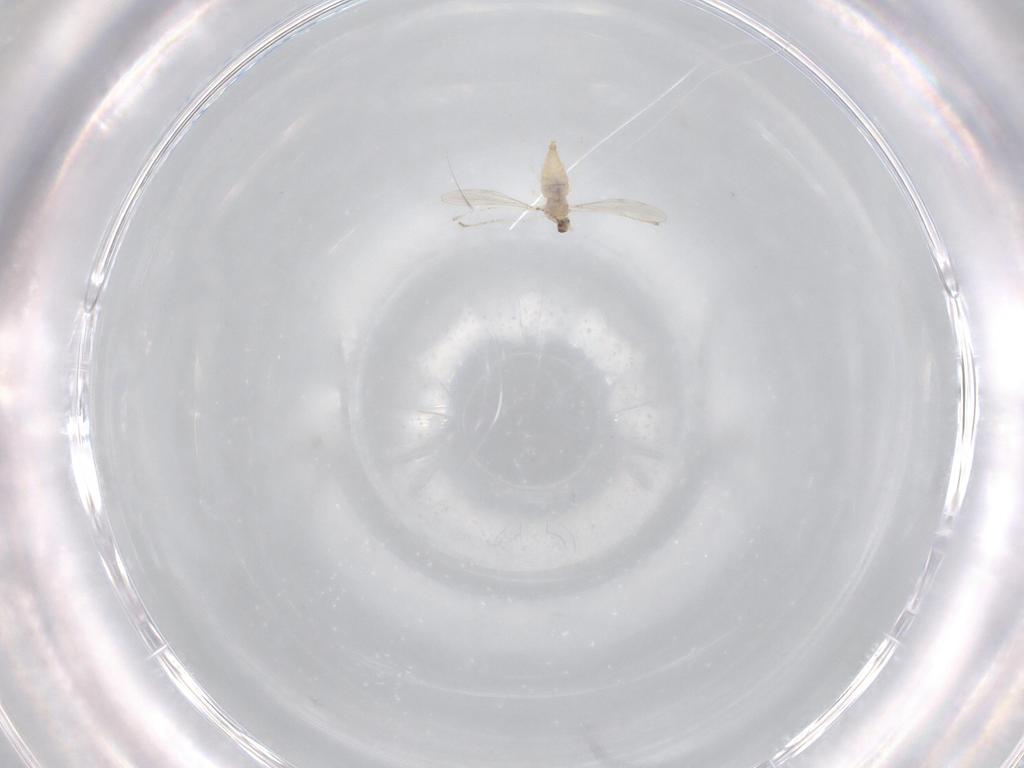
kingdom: Animalia
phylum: Arthropoda
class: Insecta
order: Diptera
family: Cecidomyiidae
